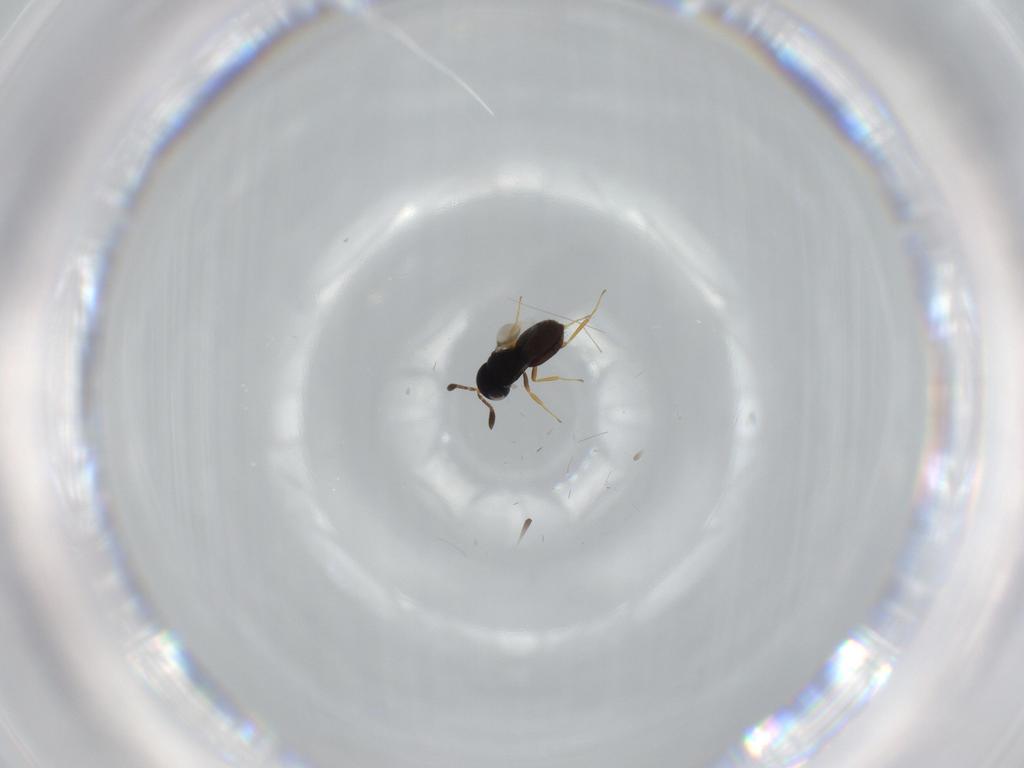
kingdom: Animalia
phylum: Arthropoda
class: Insecta
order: Hymenoptera
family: Scelionidae
